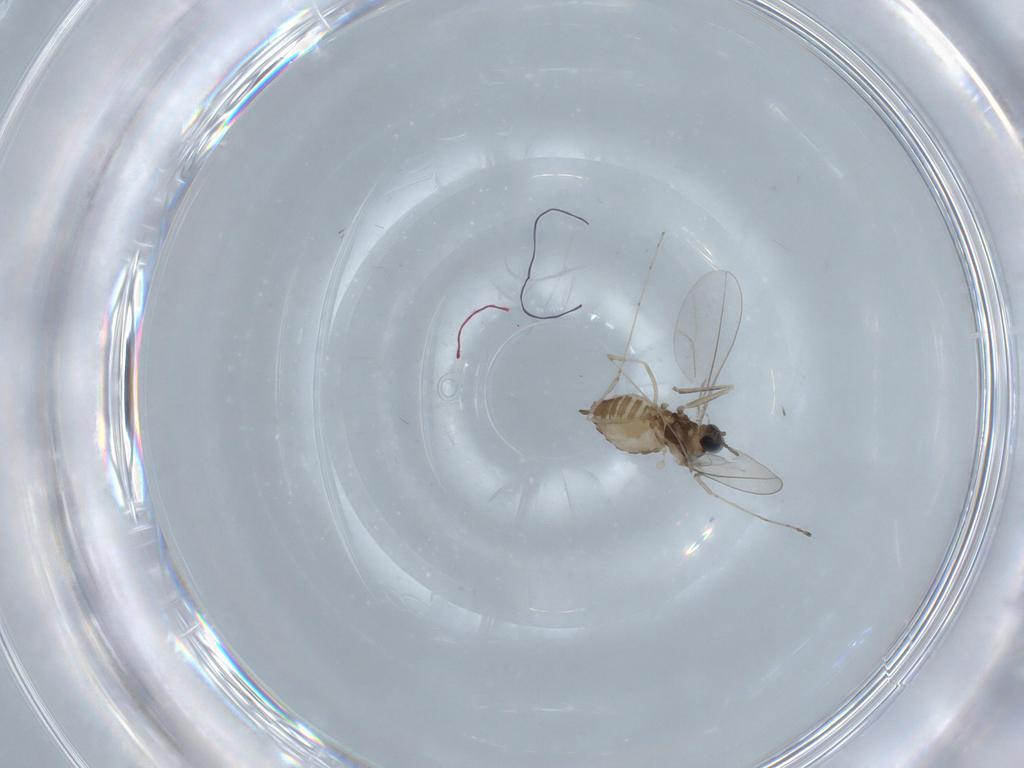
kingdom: Animalia
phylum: Arthropoda
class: Insecta
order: Diptera
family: Cecidomyiidae
